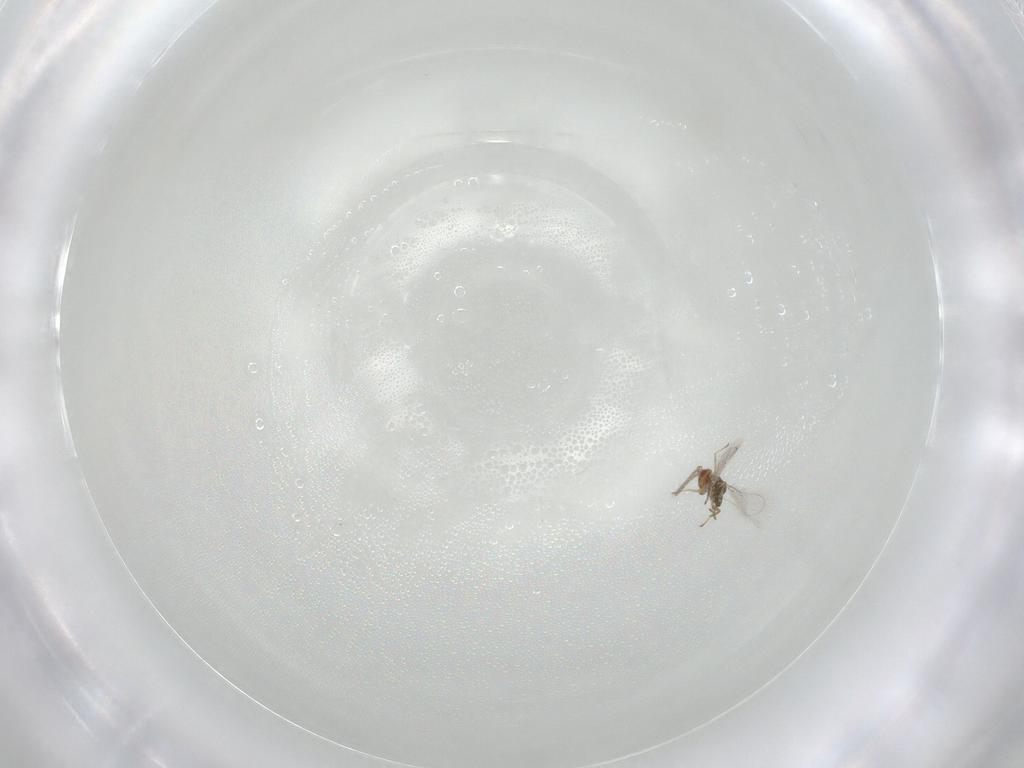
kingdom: Animalia
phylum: Arthropoda
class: Insecta
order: Hymenoptera
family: Eulophidae
